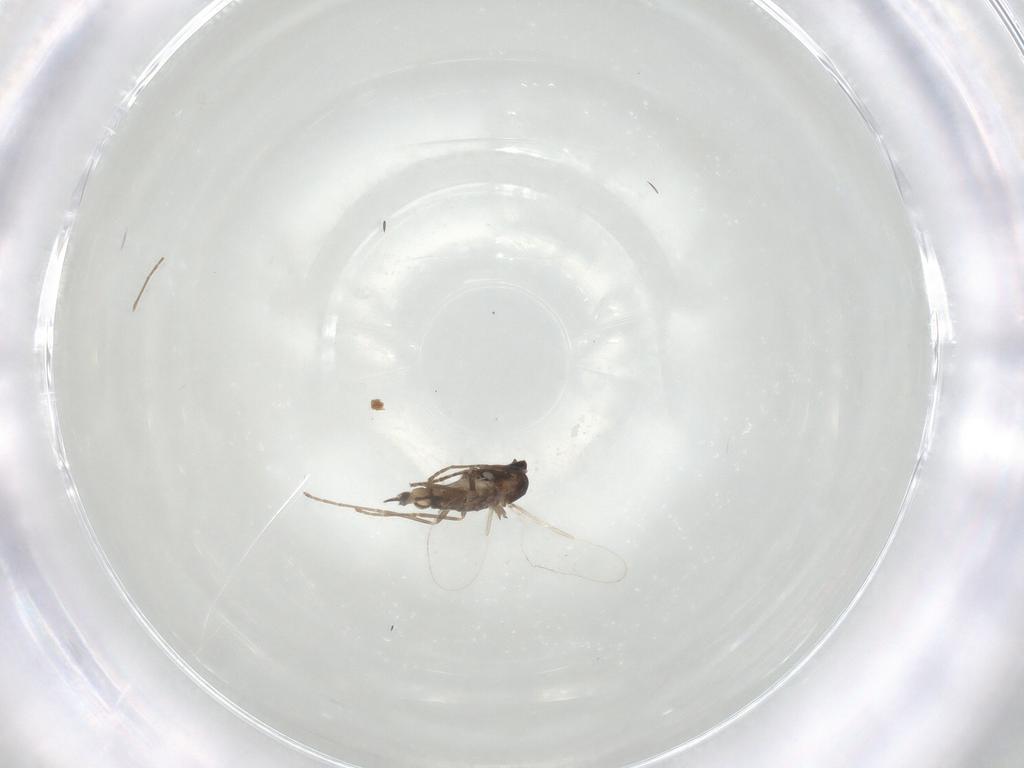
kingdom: Animalia
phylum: Arthropoda
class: Insecta
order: Diptera
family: Cecidomyiidae
